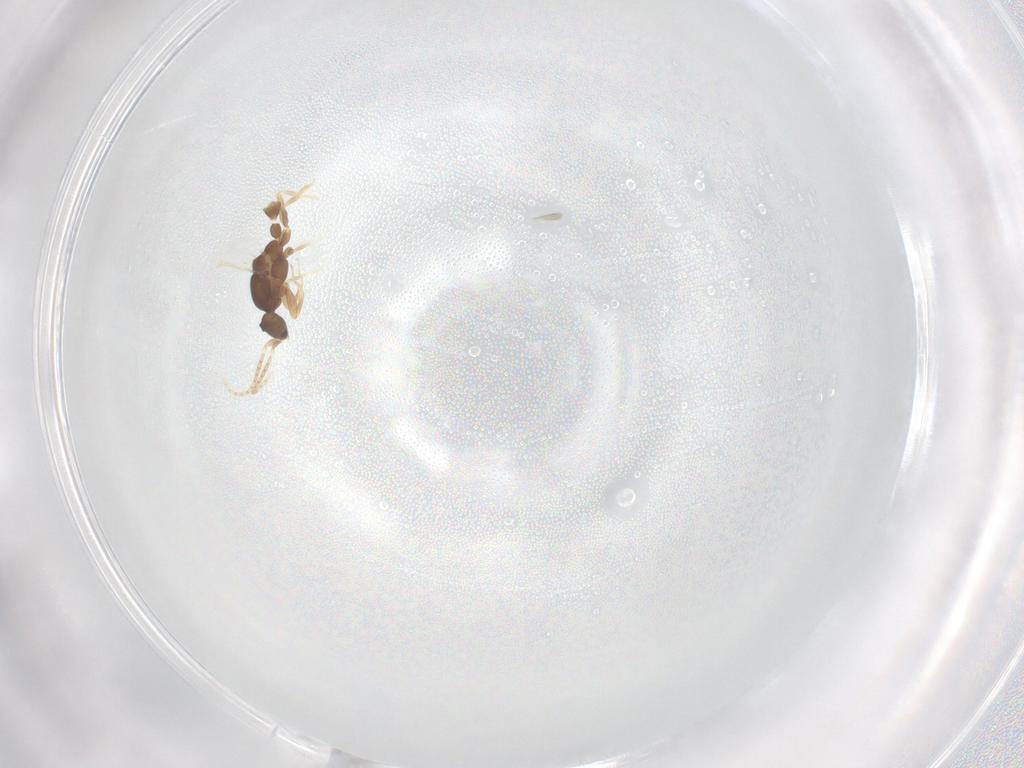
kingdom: Animalia
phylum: Arthropoda
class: Insecta
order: Hymenoptera
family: Formicidae
